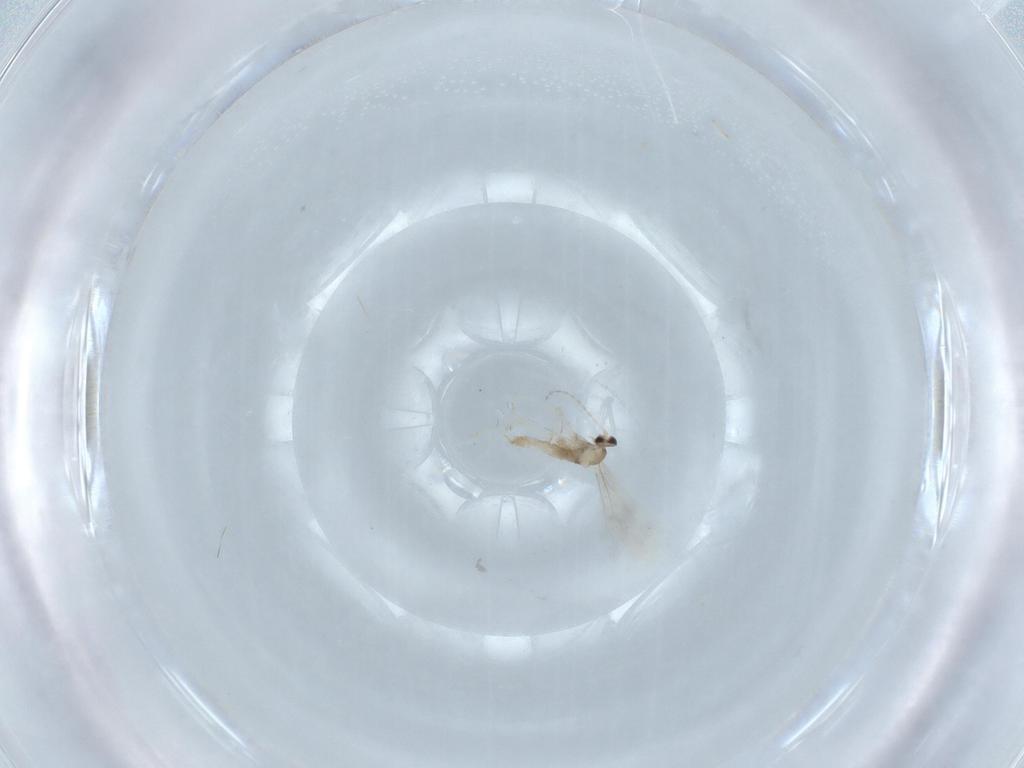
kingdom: Animalia
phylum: Arthropoda
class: Insecta
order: Diptera
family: Cecidomyiidae
